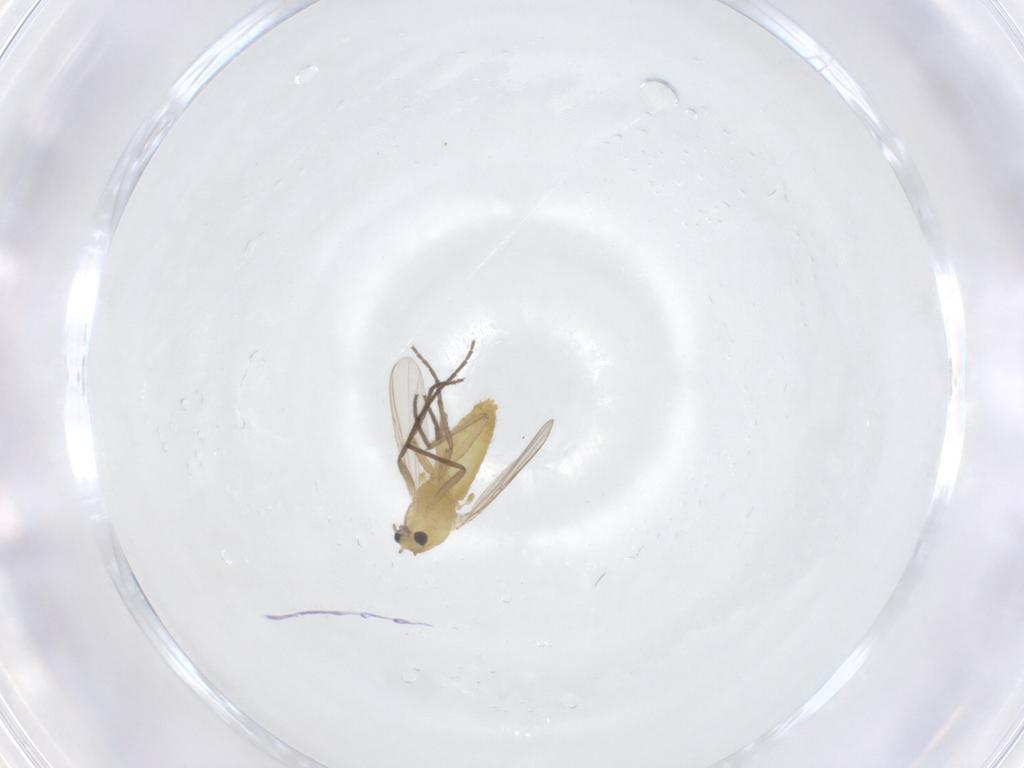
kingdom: Animalia
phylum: Arthropoda
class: Insecta
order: Diptera
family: Chironomidae
